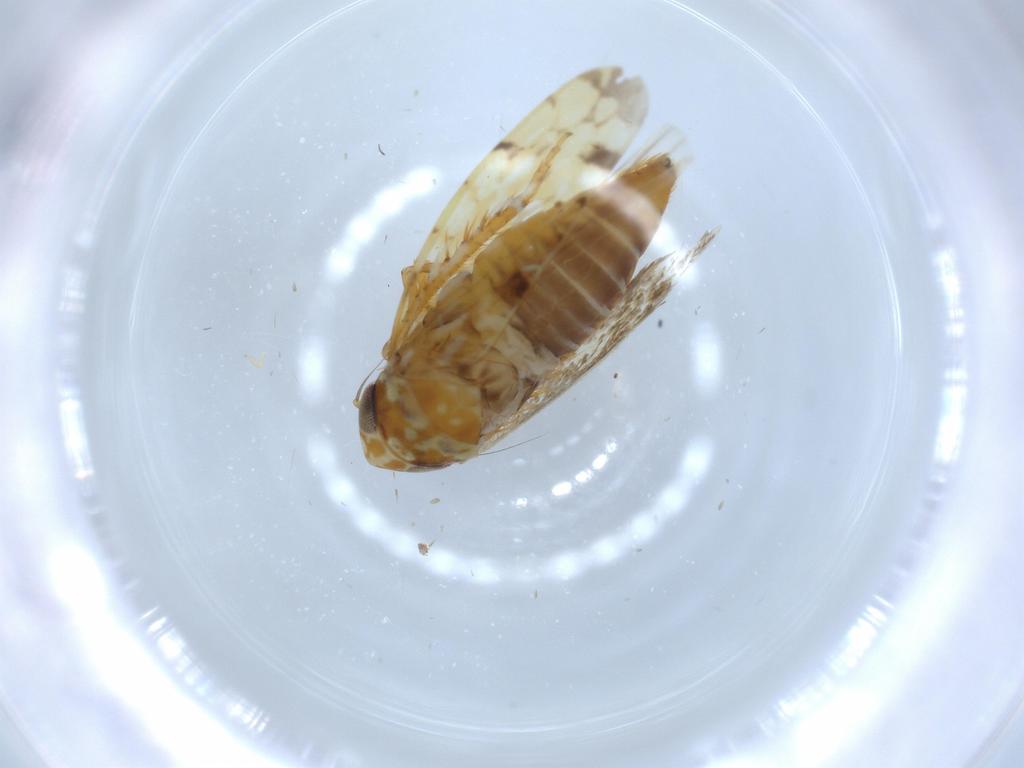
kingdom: Animalia
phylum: Arthropoda
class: Insecta
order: Hemiptera
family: Cicadellidae
